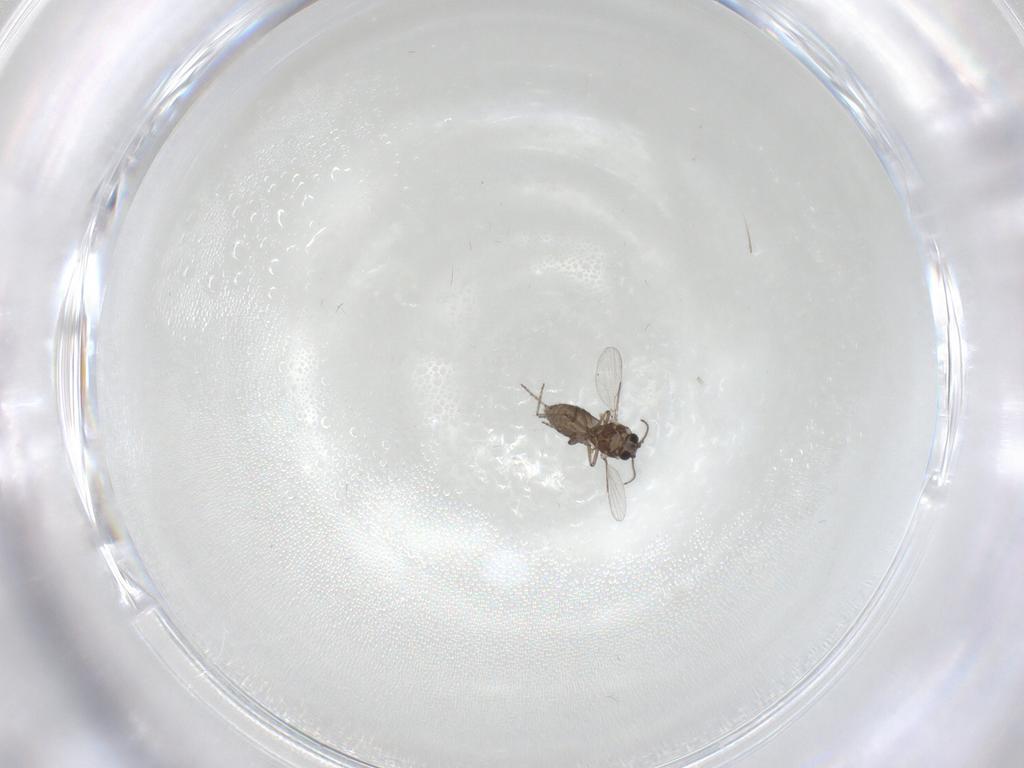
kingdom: Animalia
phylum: Arthropoda
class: Insecta
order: Diptera
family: Ceratopogonidae
